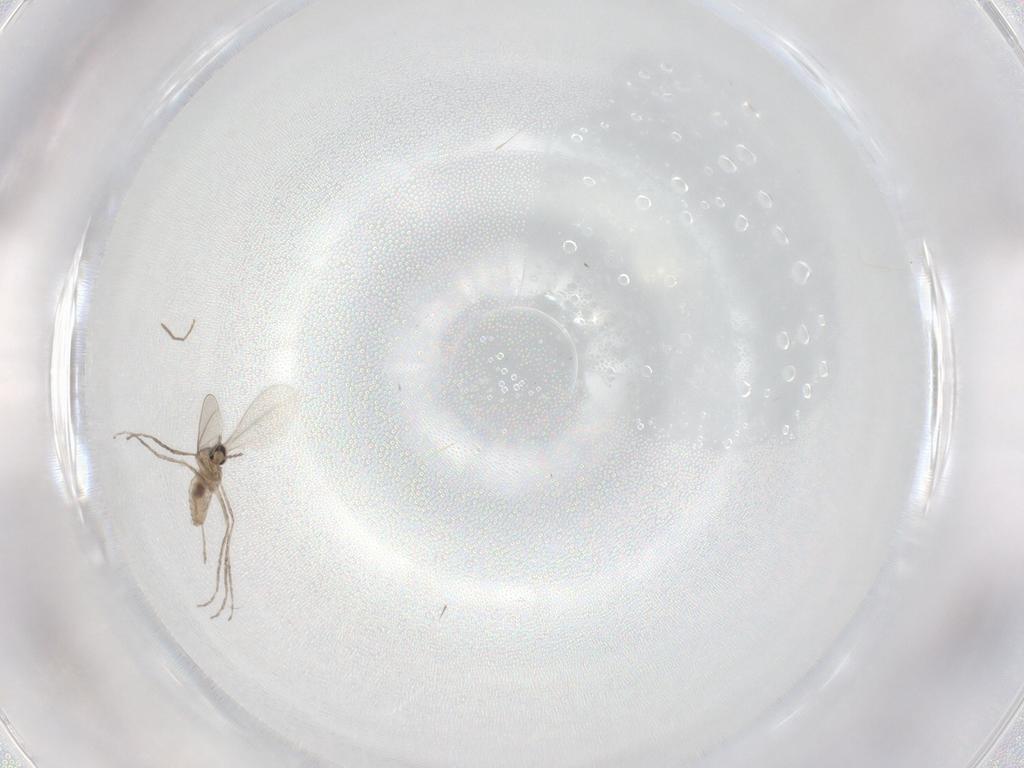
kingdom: Animalia
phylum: Arthropoda
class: Insecta
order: Diptera
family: Cecidomyiidae
